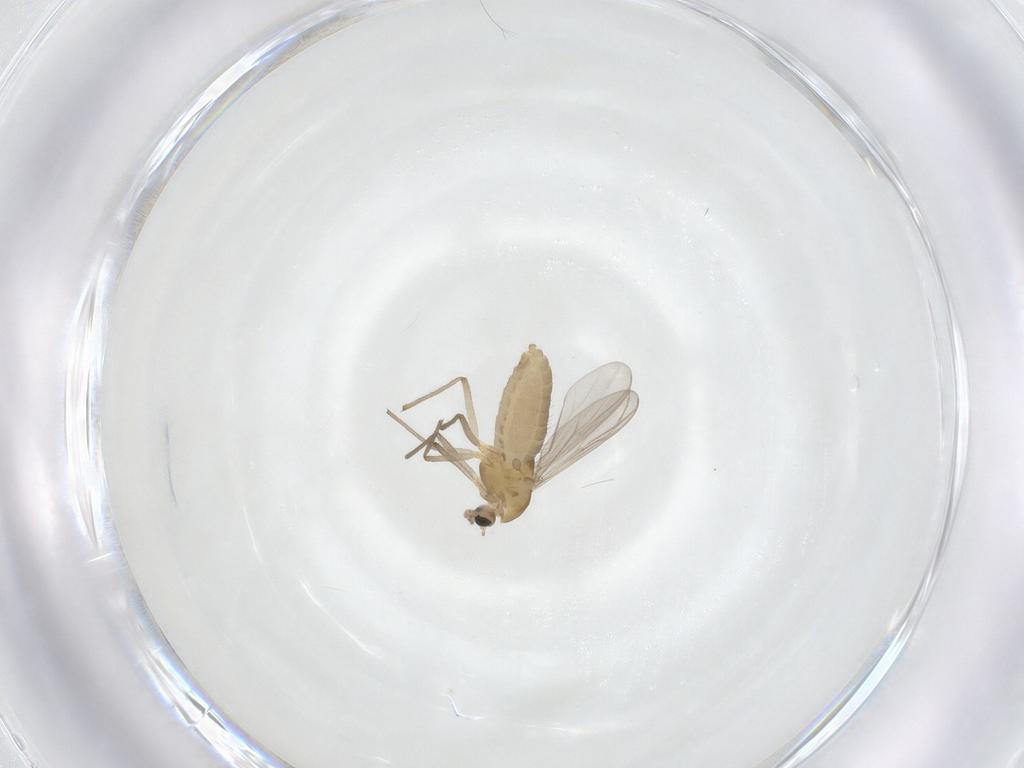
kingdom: Animalia
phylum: Arthropoda
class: Insecta
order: Diptera
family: Chironomidae
